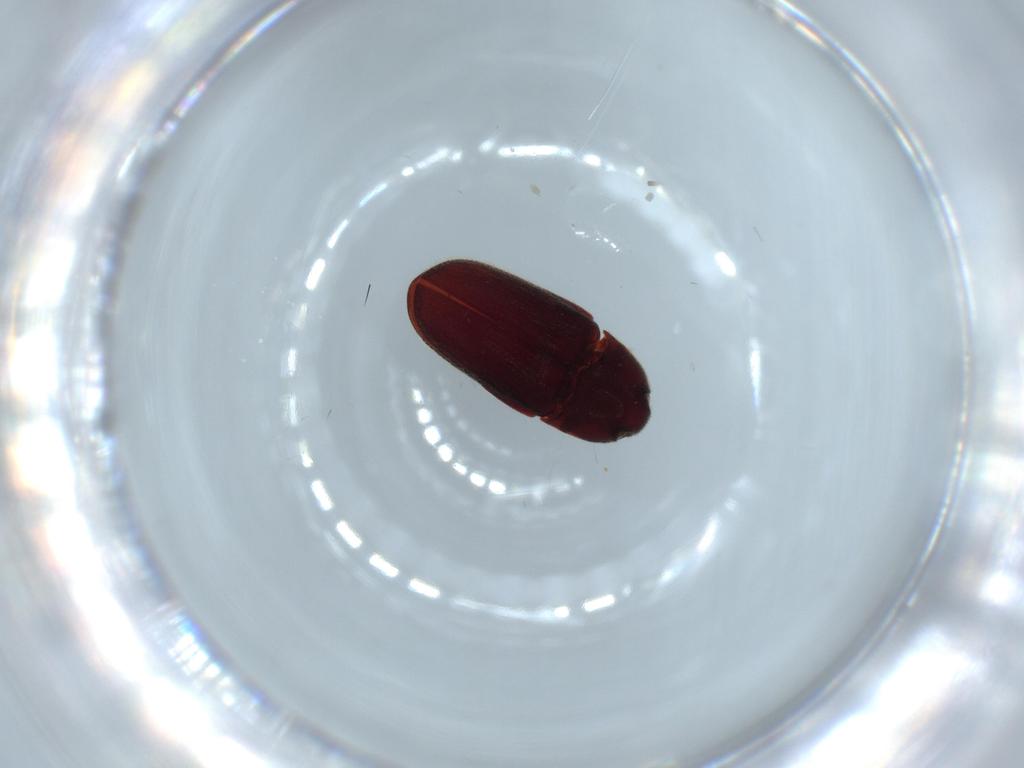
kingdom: Animalia
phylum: Arthropoda
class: Insecta
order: Coleoptera
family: Throscidae
